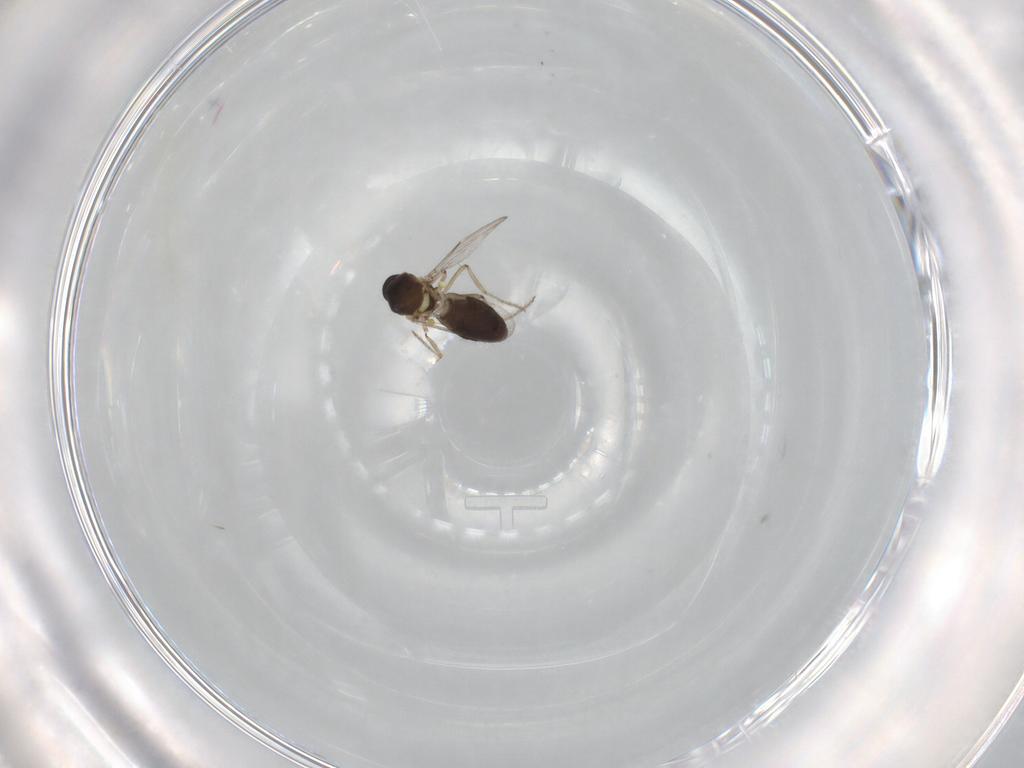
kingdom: Animalia
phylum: Arthropoda
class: Insecta
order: Diptera
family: Ceratopogonidae
